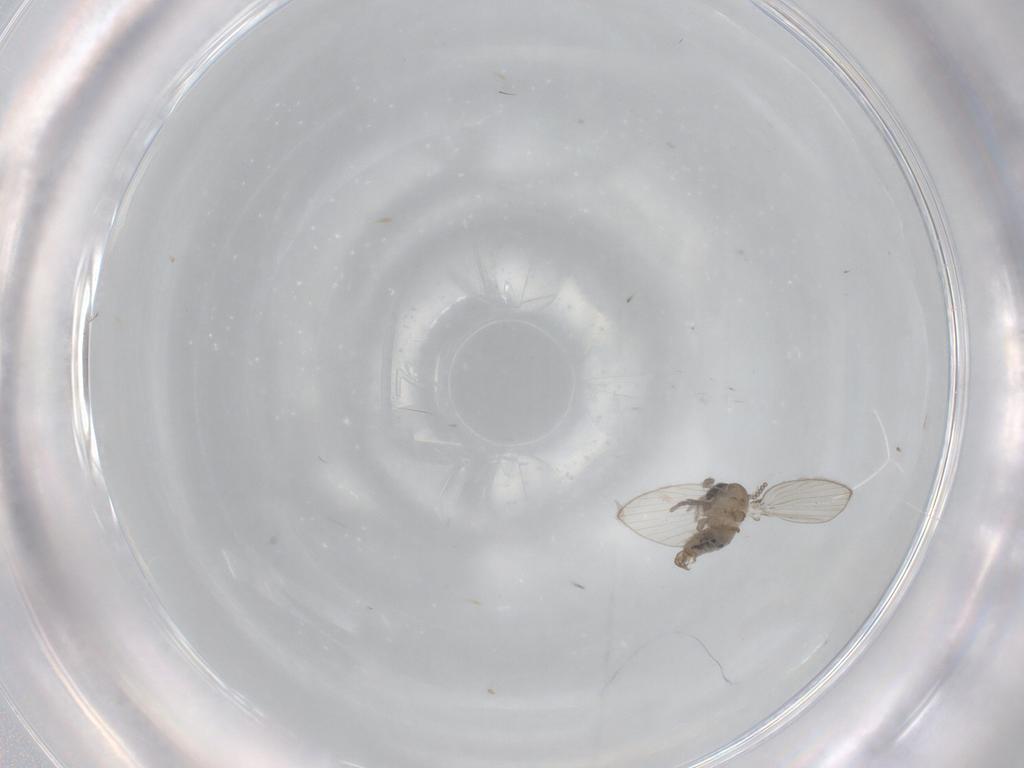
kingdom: Animalia
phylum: Arthropoda
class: Insecta
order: Diptera
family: Psychodidae
